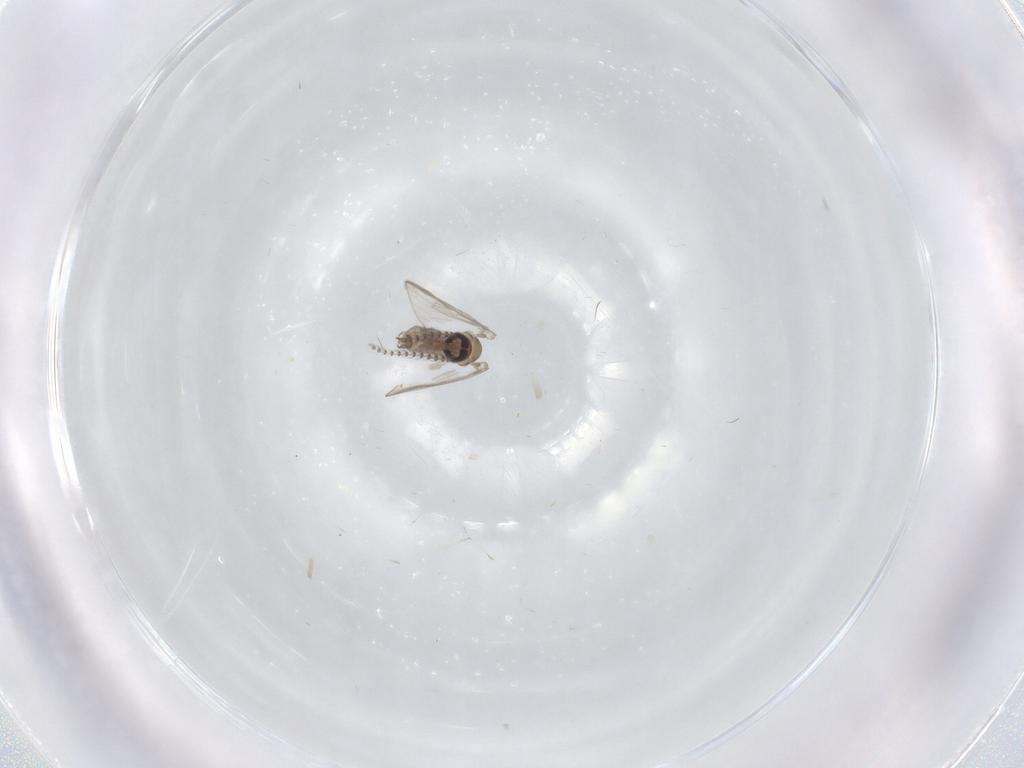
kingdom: Animalia
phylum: Arthropoda
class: Insecta
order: Diptera
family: Psychodidae
